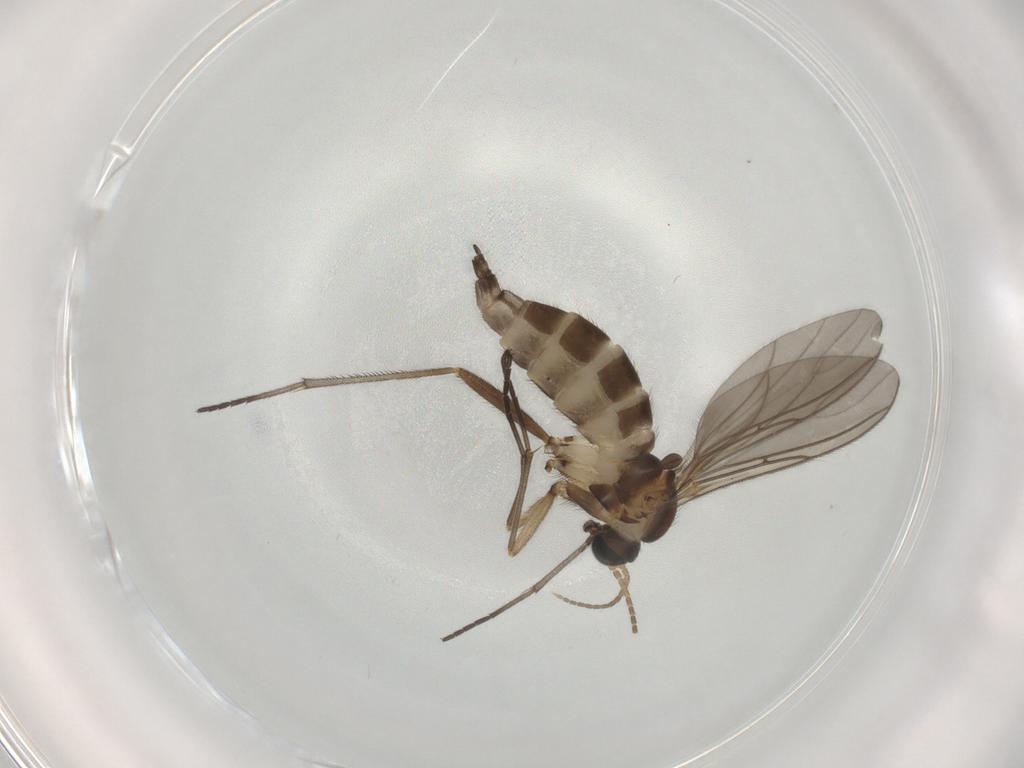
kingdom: Animalia
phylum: Arthropoda
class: Insecta
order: Diptera
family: Sciaridae
